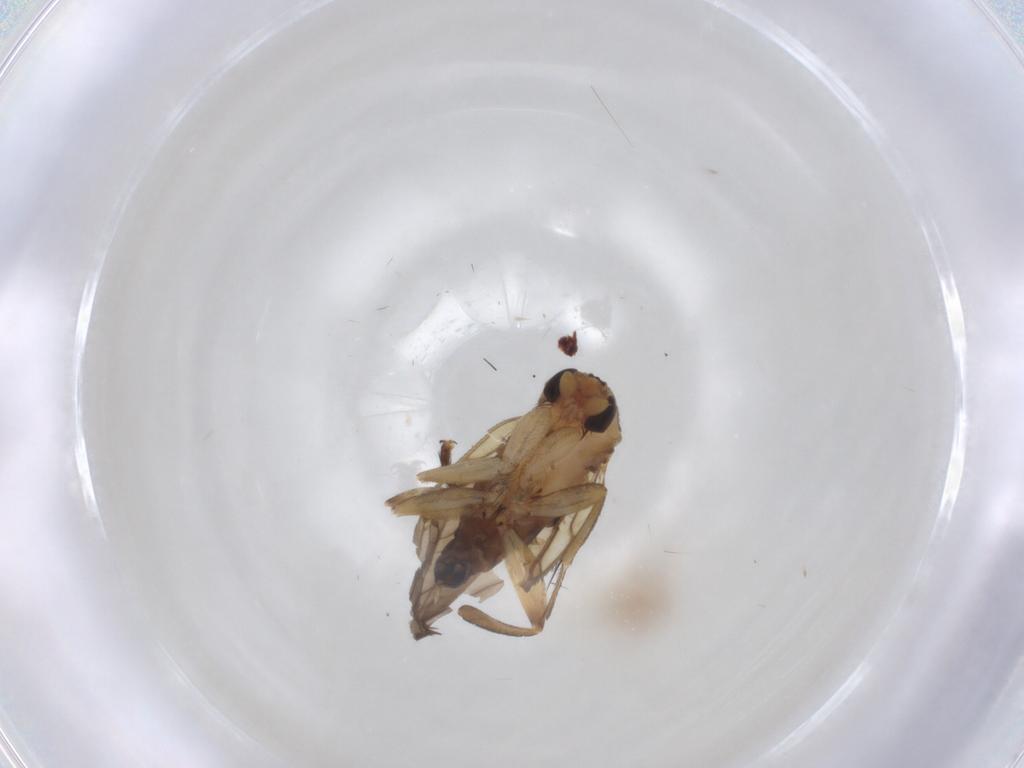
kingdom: Animalia
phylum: Arthropoda
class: Insecta
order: Diptera
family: Phoridae
